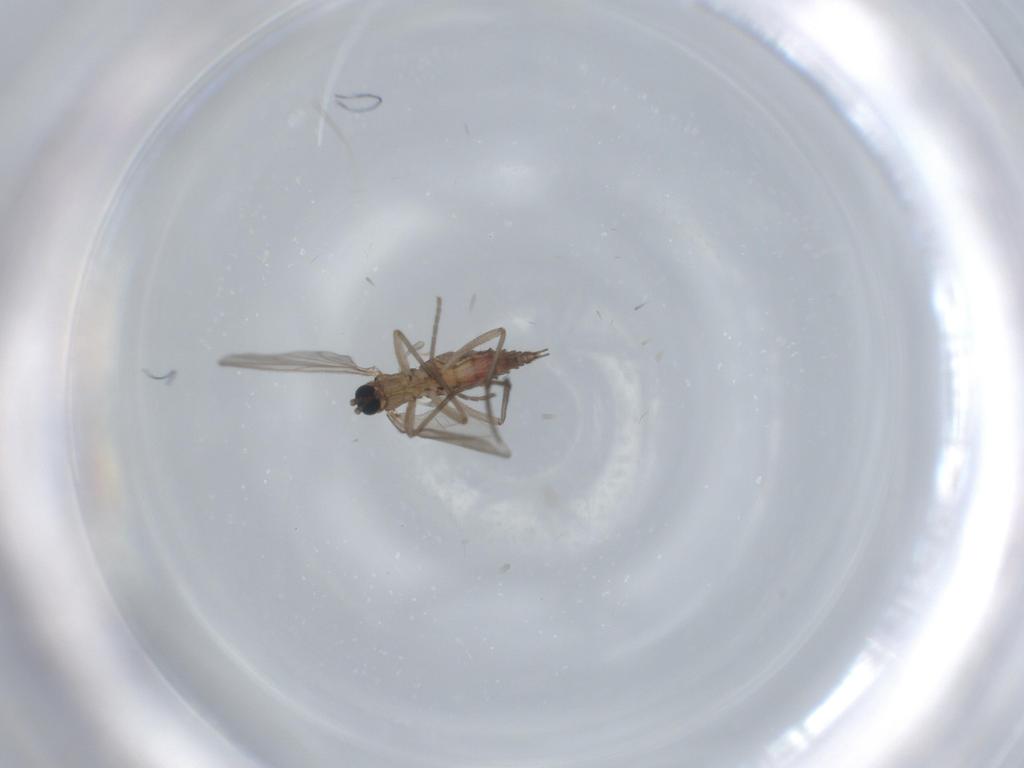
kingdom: Animalia
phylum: Arthropoda
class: Insecta
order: Diptera
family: Sciaridae
